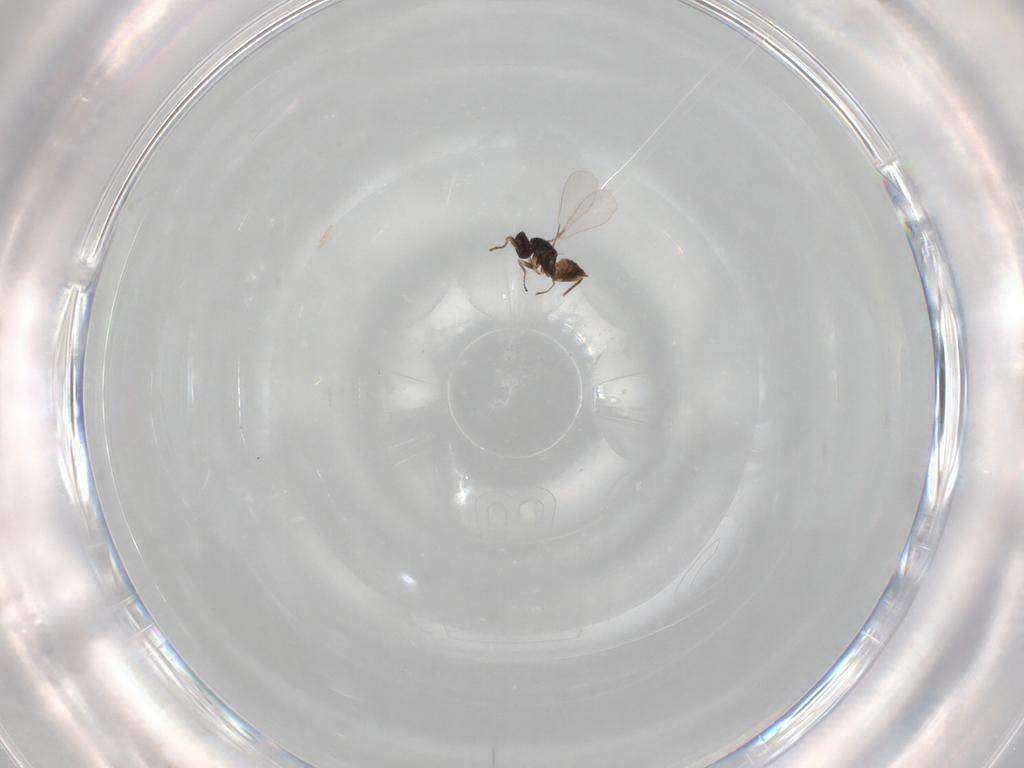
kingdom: Animalia
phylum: Arthropoda
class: Insecta
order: Hymenoptera
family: Mymaridae
